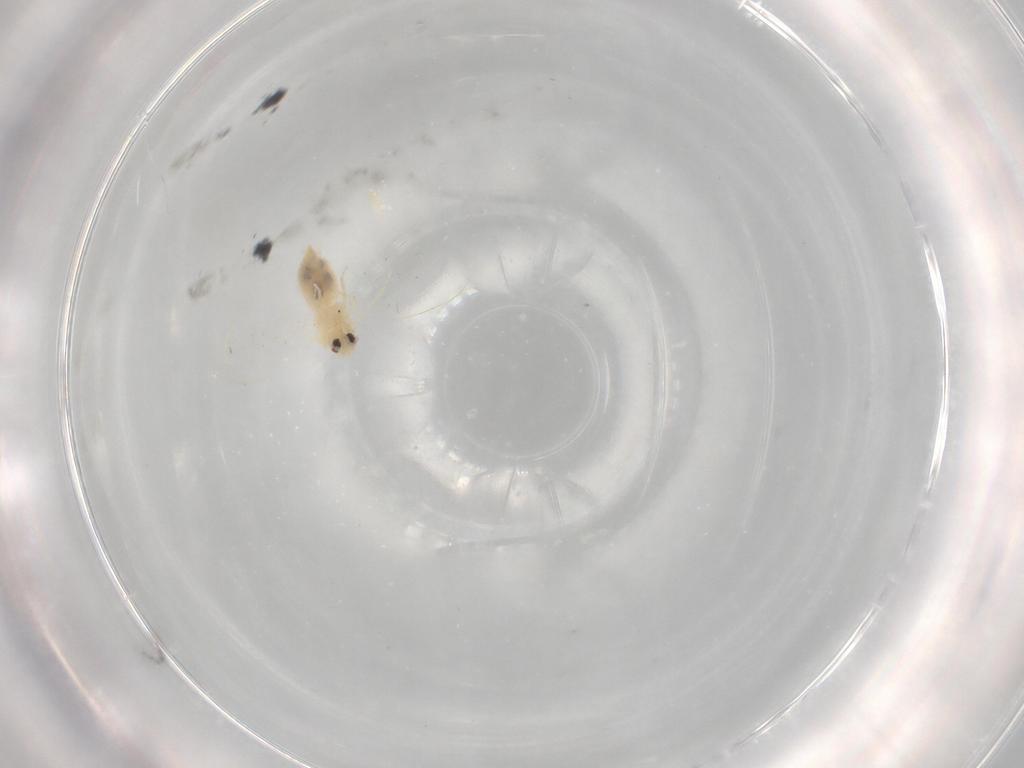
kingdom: Animalia
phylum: Arthropoda
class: Insecta
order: Hemiptera
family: Aleyrodidae
